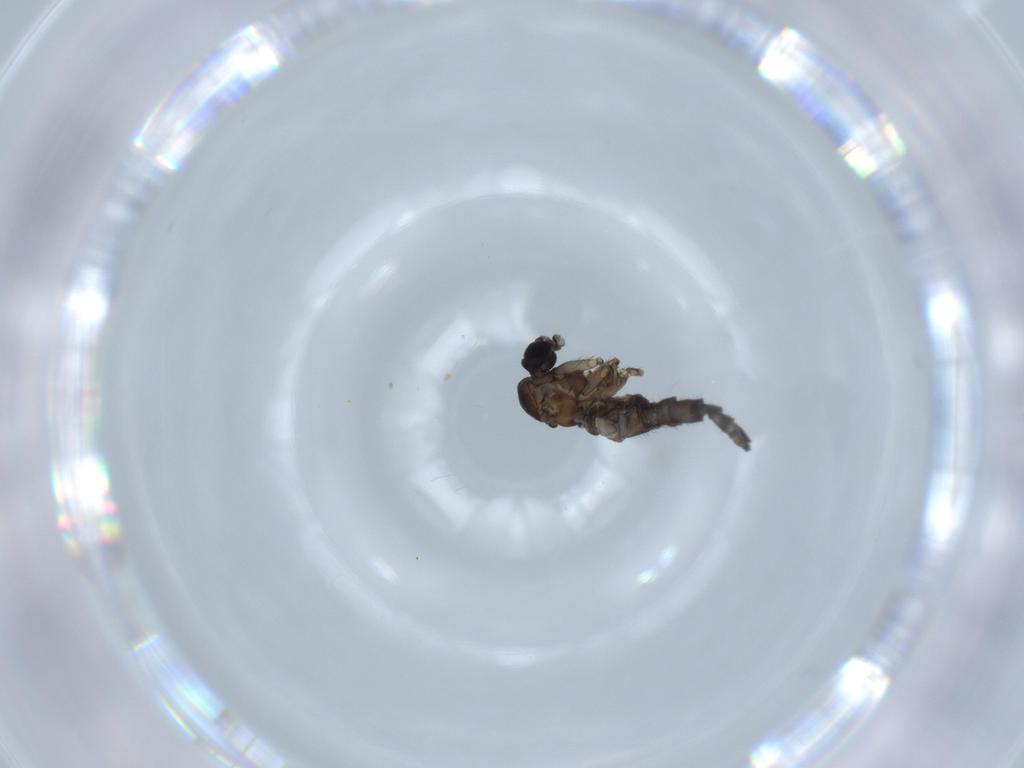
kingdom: Animalia
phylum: Arthropoda
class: Insecta
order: Diptera
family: Sciaridae
